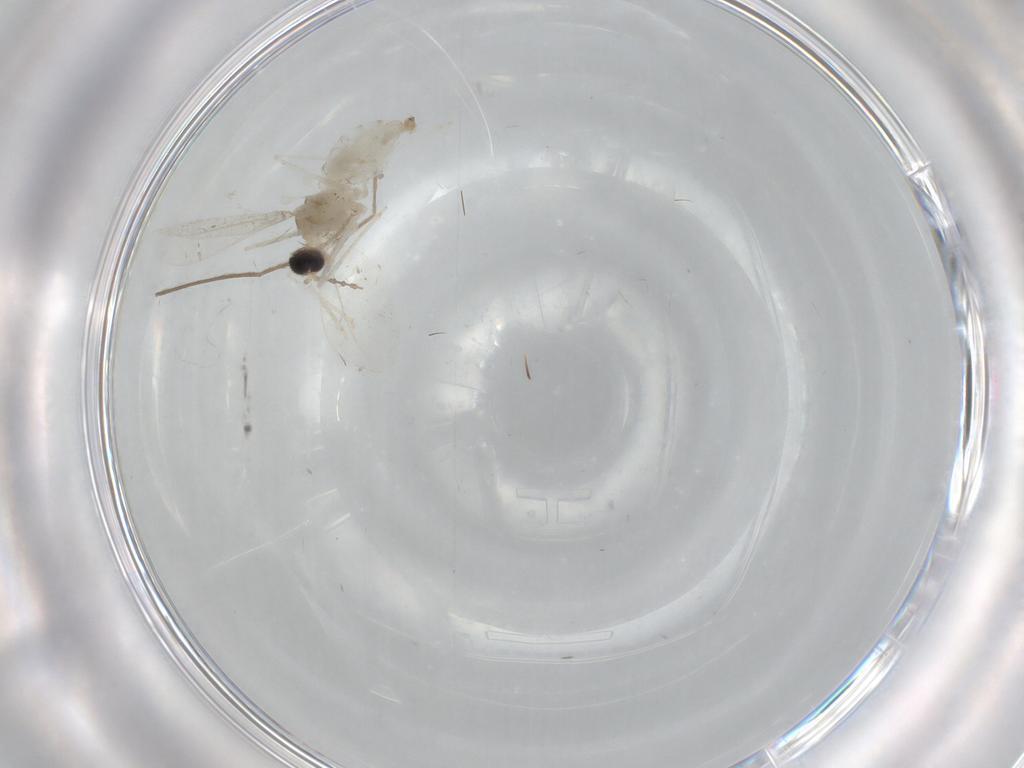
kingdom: Animalia
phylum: Arthropoda
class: Insecta
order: Diptera
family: Cecidomyiidae
